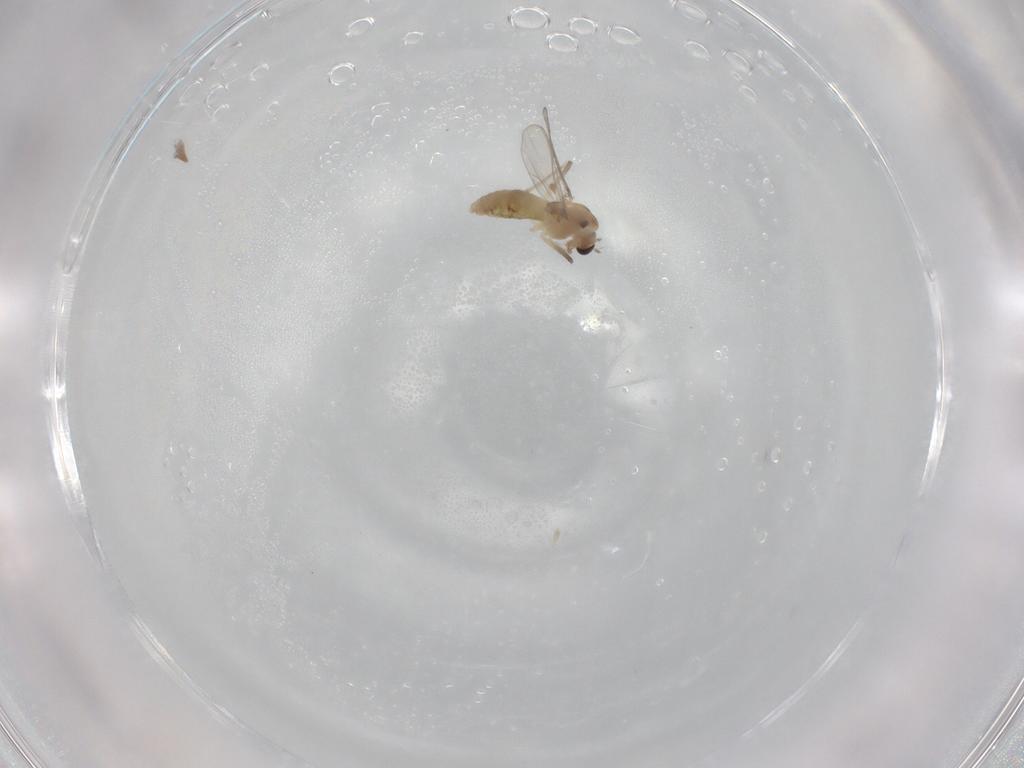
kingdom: Animalia
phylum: Arthropoda
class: Insecta
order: Diptera
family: Chironomidae
